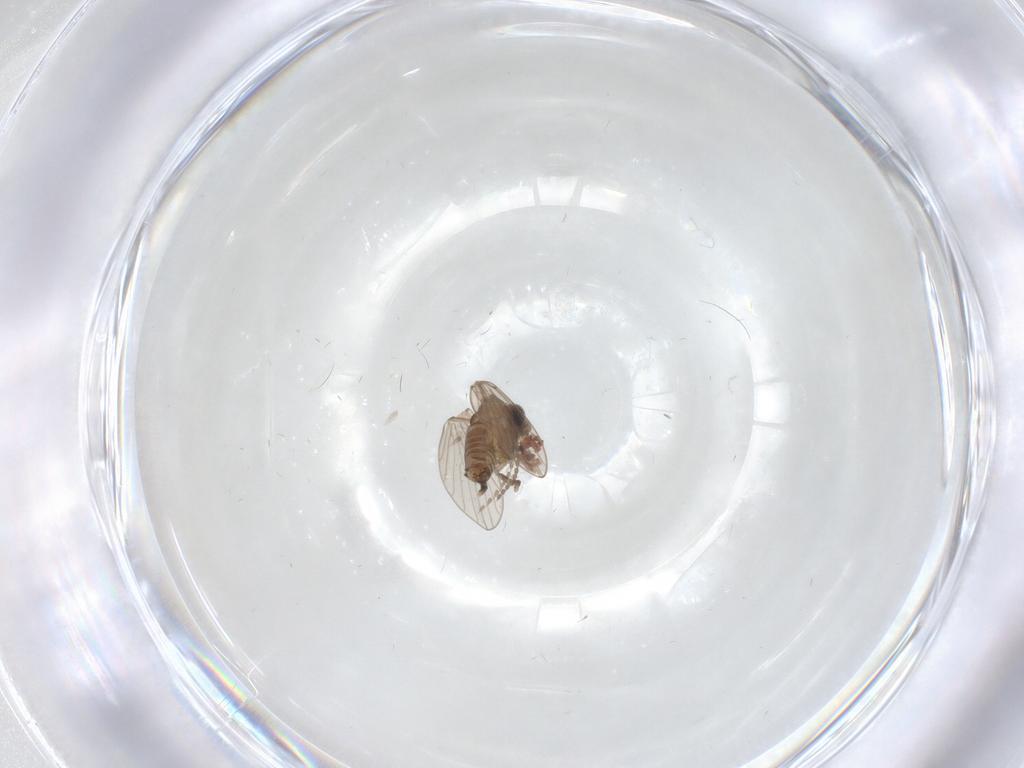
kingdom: Animalia
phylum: Arthropoda
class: Insecta
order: Diptera
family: Psychodidae
